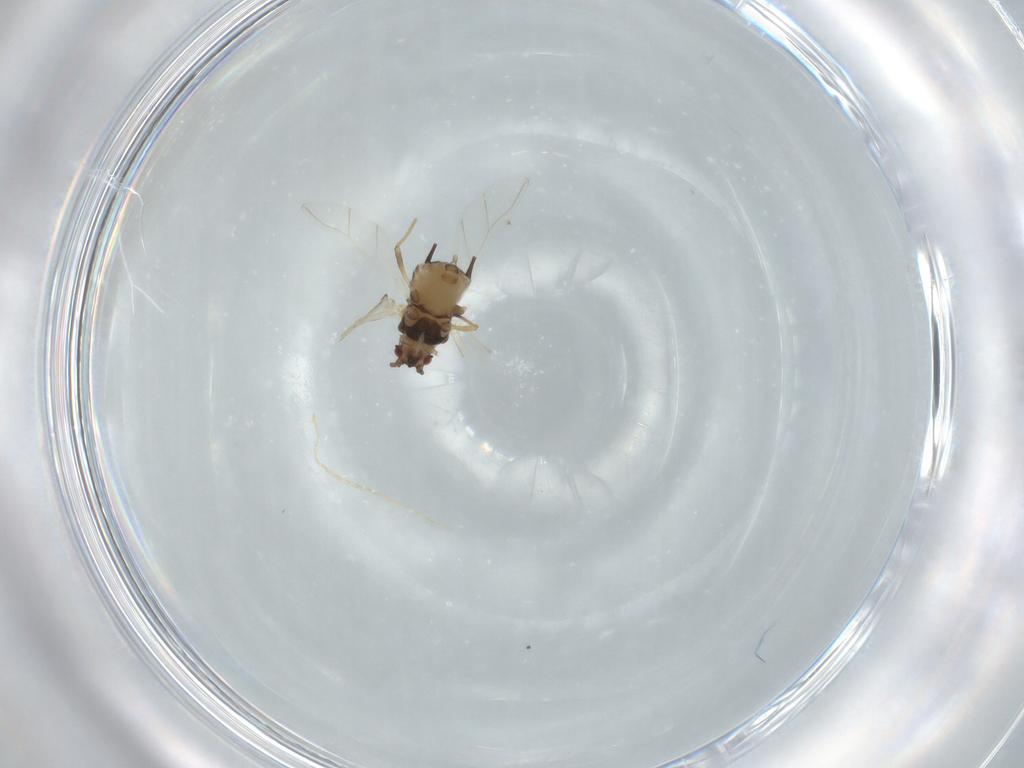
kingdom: Animalia
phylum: Arthropoda
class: Insecta
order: Hemiptera
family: Aphididae
